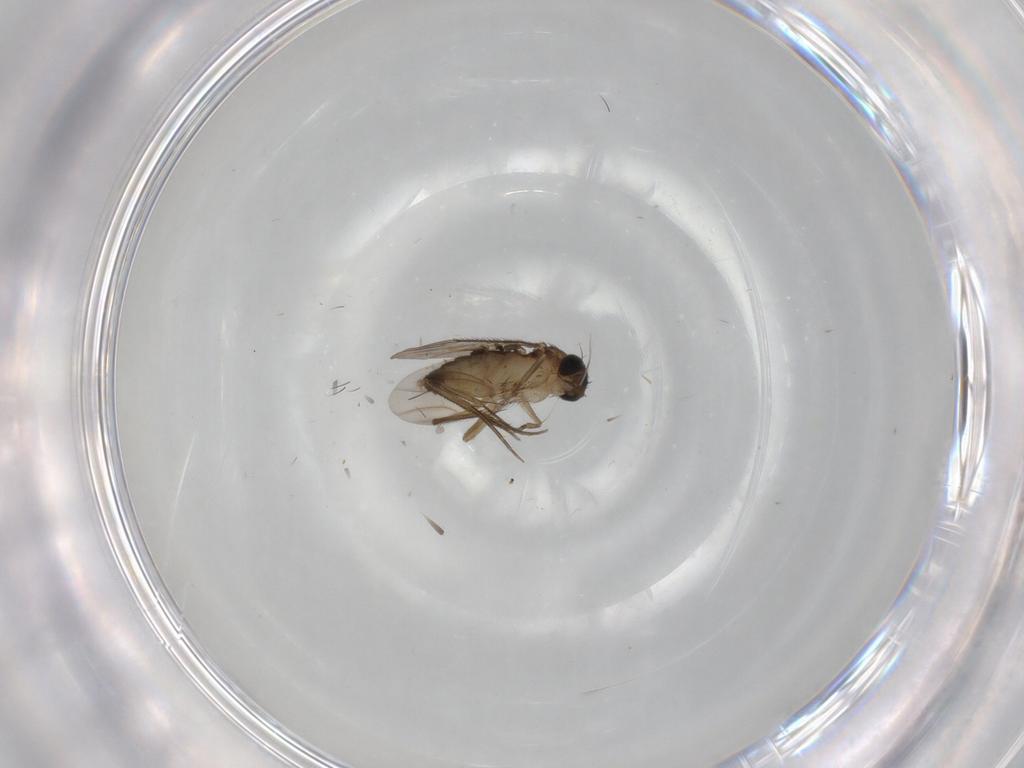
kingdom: Animalia
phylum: Arthropoda
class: Insecta
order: Diptera
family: Phoridae
